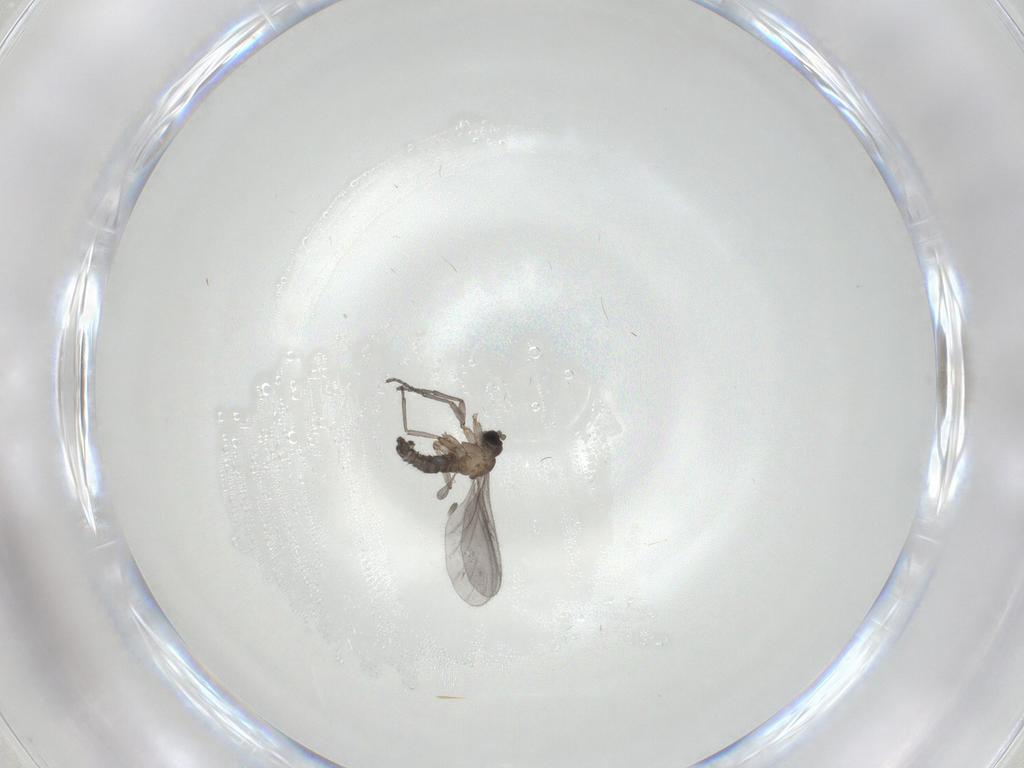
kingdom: Animalia
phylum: Arthropoda
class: Insecta
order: Diptera
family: Sciaridae
